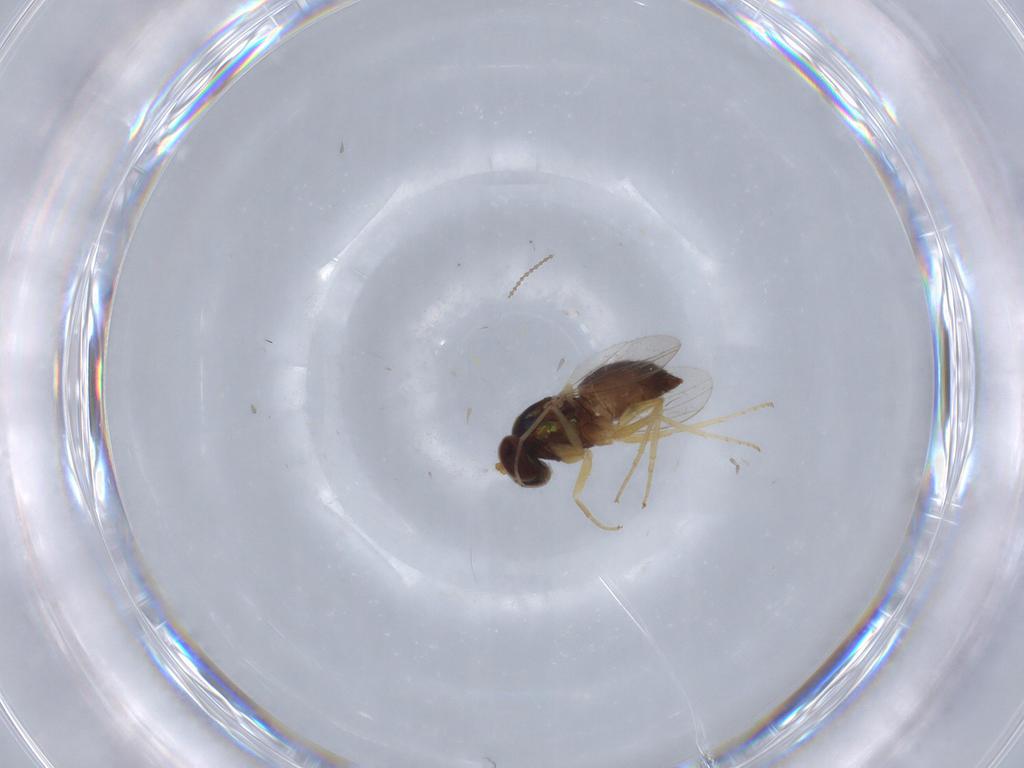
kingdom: Animalia
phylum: Arthropoda
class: Insecta
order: Diptera
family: Dolichopodidae
